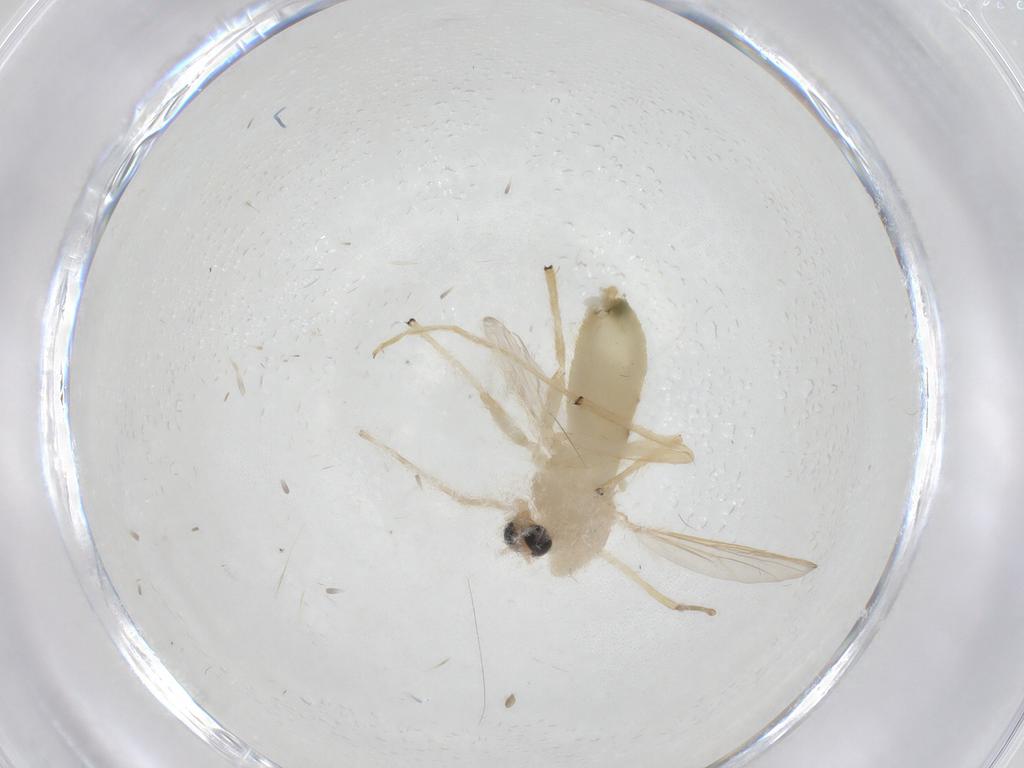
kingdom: Animalia
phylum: Arthropoda
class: Insecta
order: Diptera
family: Chironomidae
